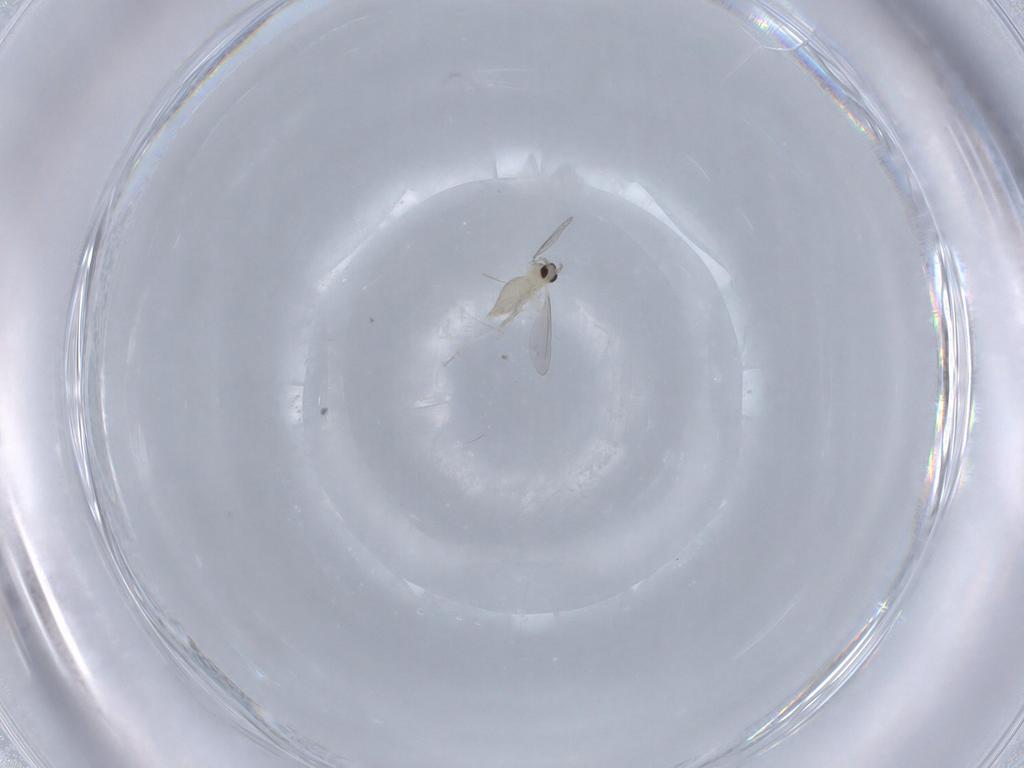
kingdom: Animalia
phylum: Arthropoda
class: Insecta
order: Diptera
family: Cecidomyiidae
